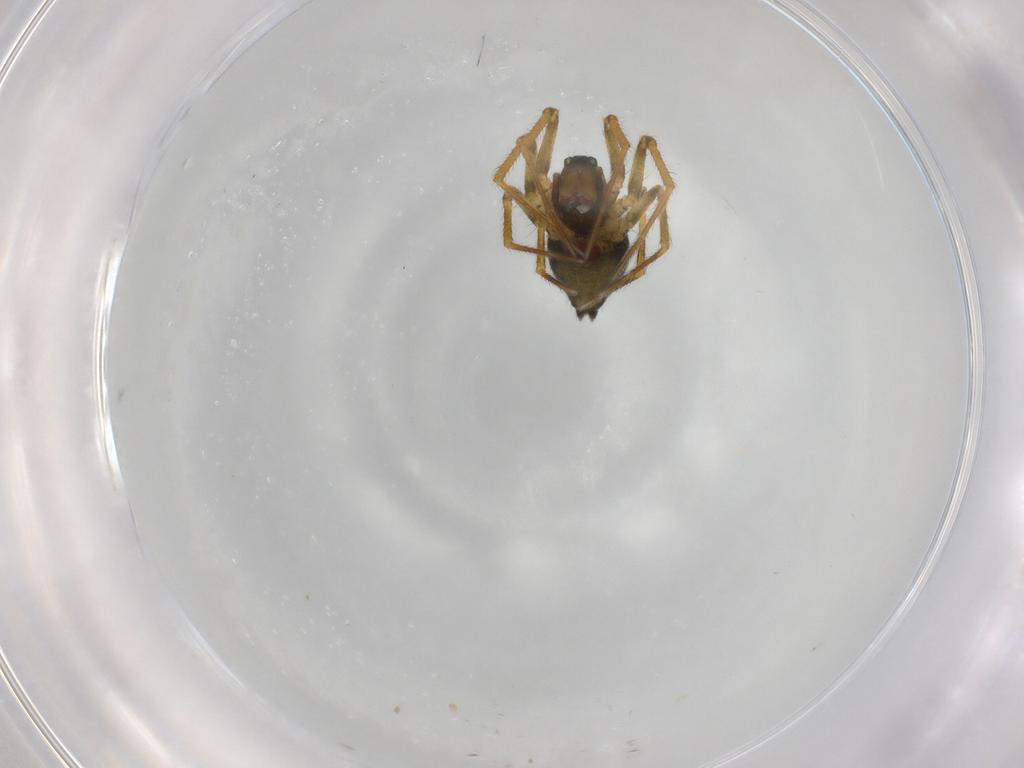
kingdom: Animalia
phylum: Arthropoda
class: Arachnida
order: Araneae
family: Linyphiidae
